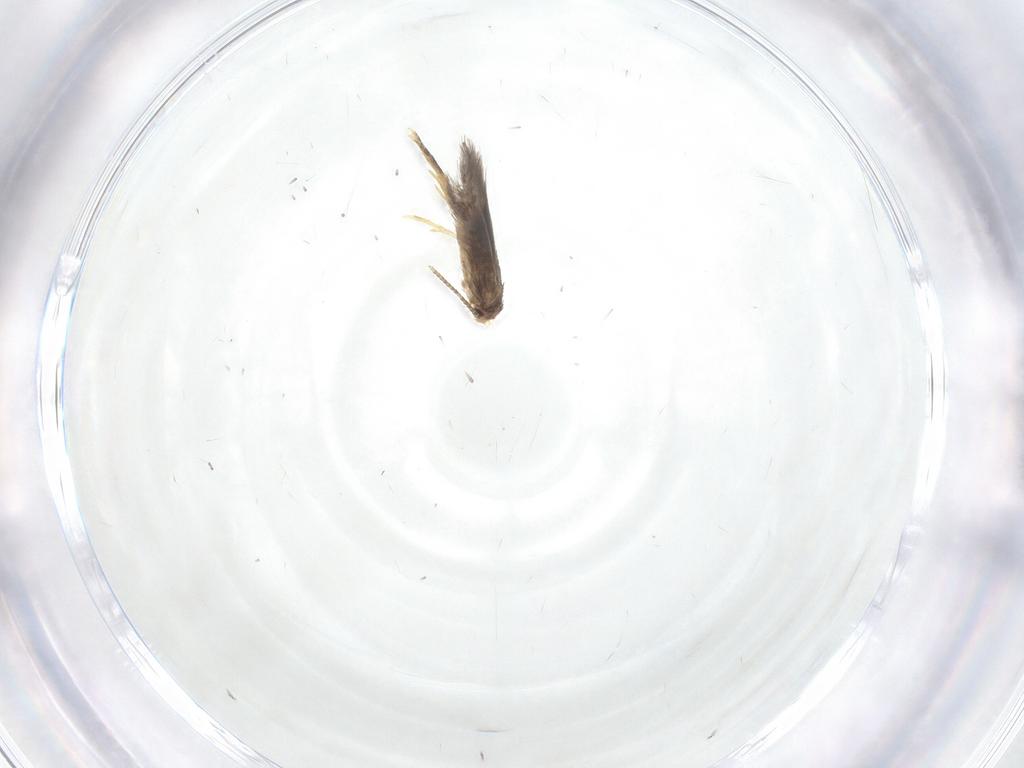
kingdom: Animalia
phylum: Arthropoda
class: Insecta
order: Lepidoptera
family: Nepticulidae
